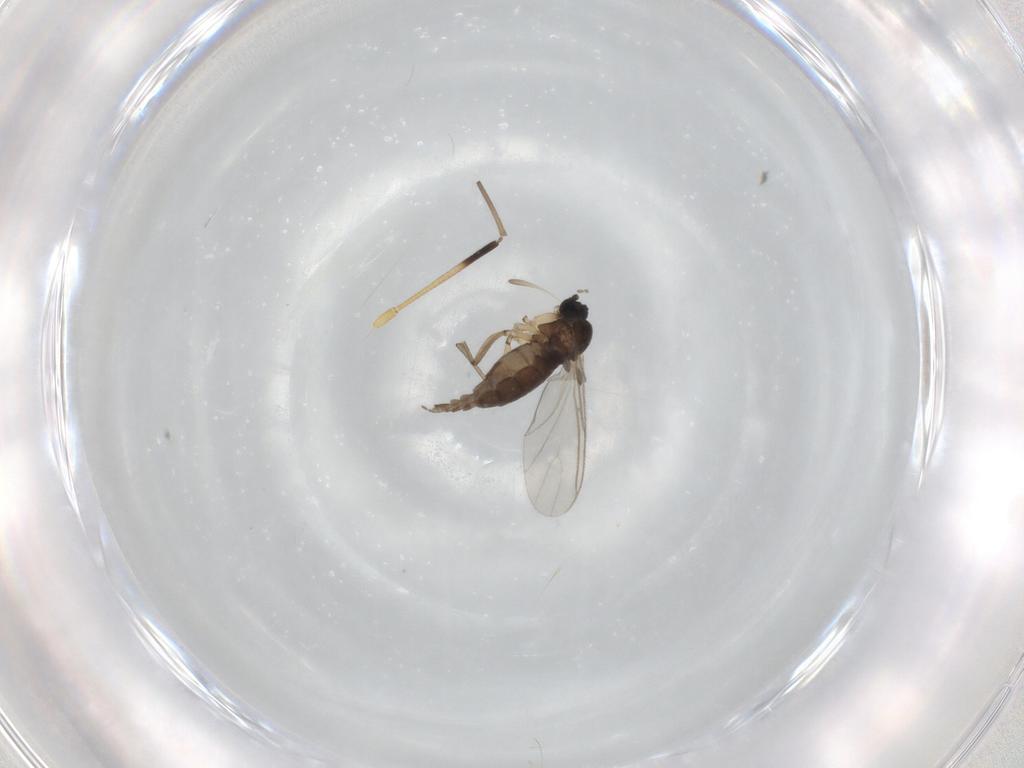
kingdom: Animalia
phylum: Arthropoda
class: Insecta
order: Diptera
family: Sciaridae
